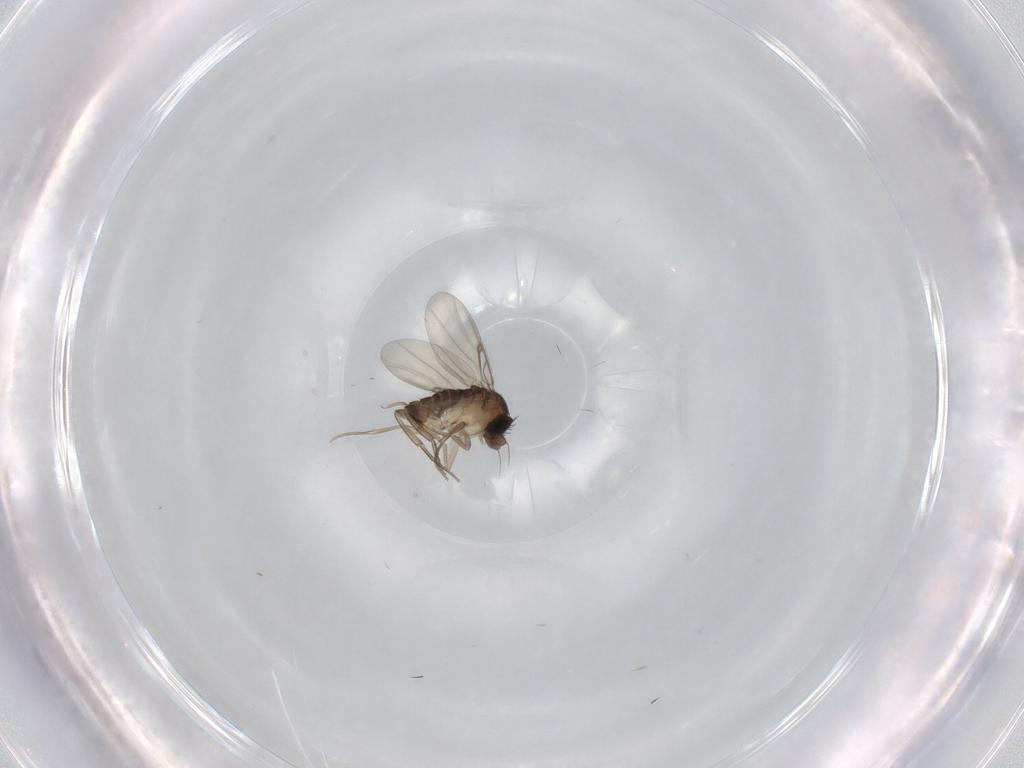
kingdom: Animalia
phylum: Arthropoda
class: Insecta
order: Diptera
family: Phoridae
